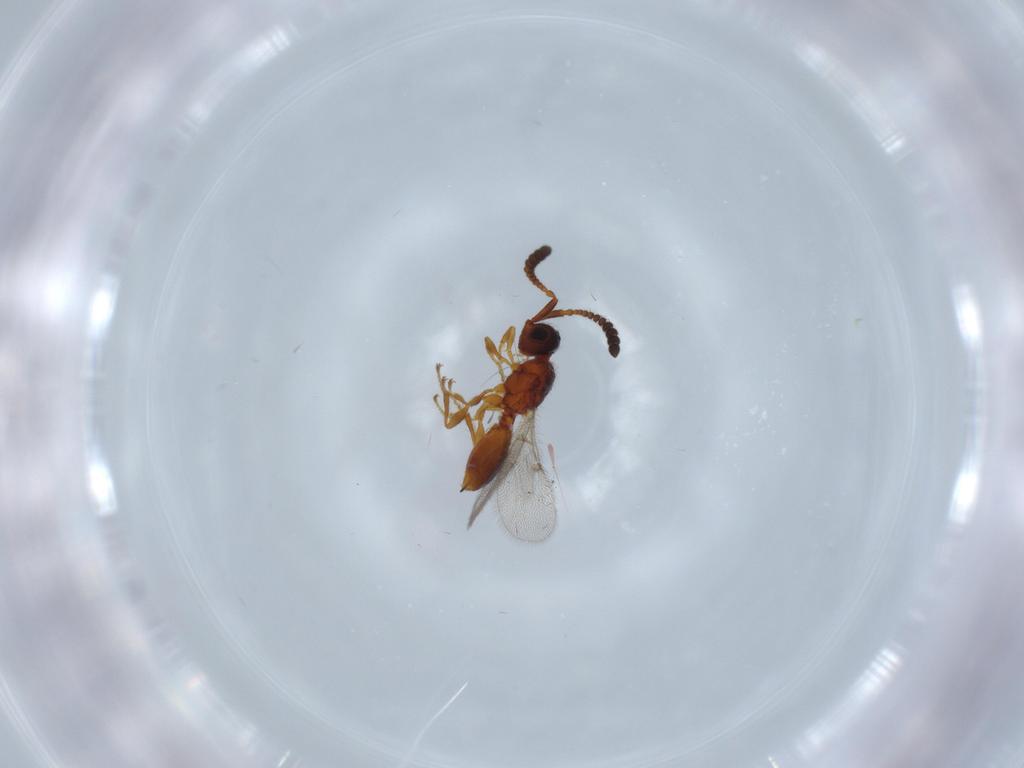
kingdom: Animalia
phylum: Arthropoda
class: Insecta
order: Hymenoptera
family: Diapriidae
